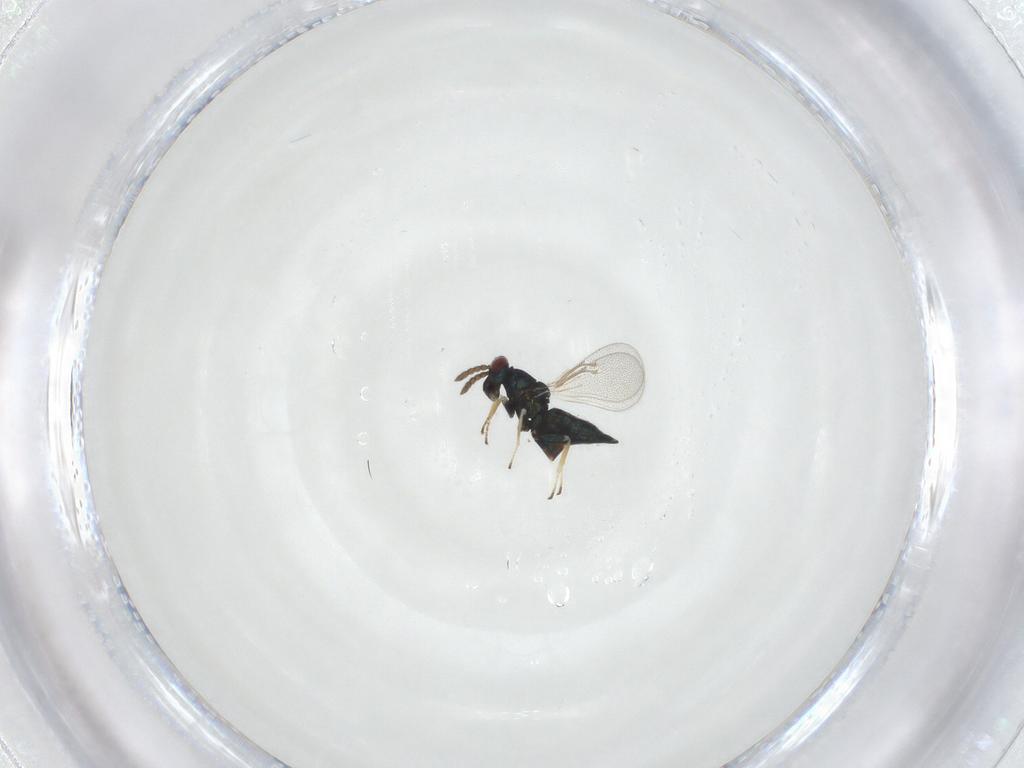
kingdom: Animalia
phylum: Arthropoda
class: Insecta
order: Hymenoptera
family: Eulophidae
